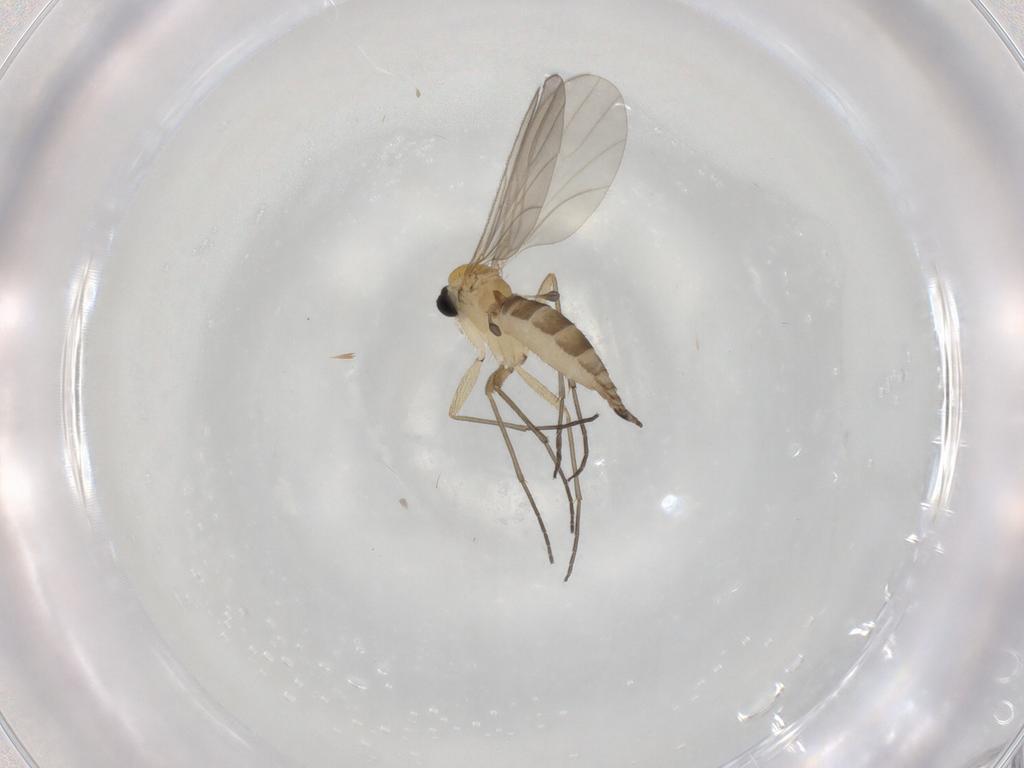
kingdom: Animalia
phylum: Arthropoda
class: Insecta
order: Diptera
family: Sciaridae
